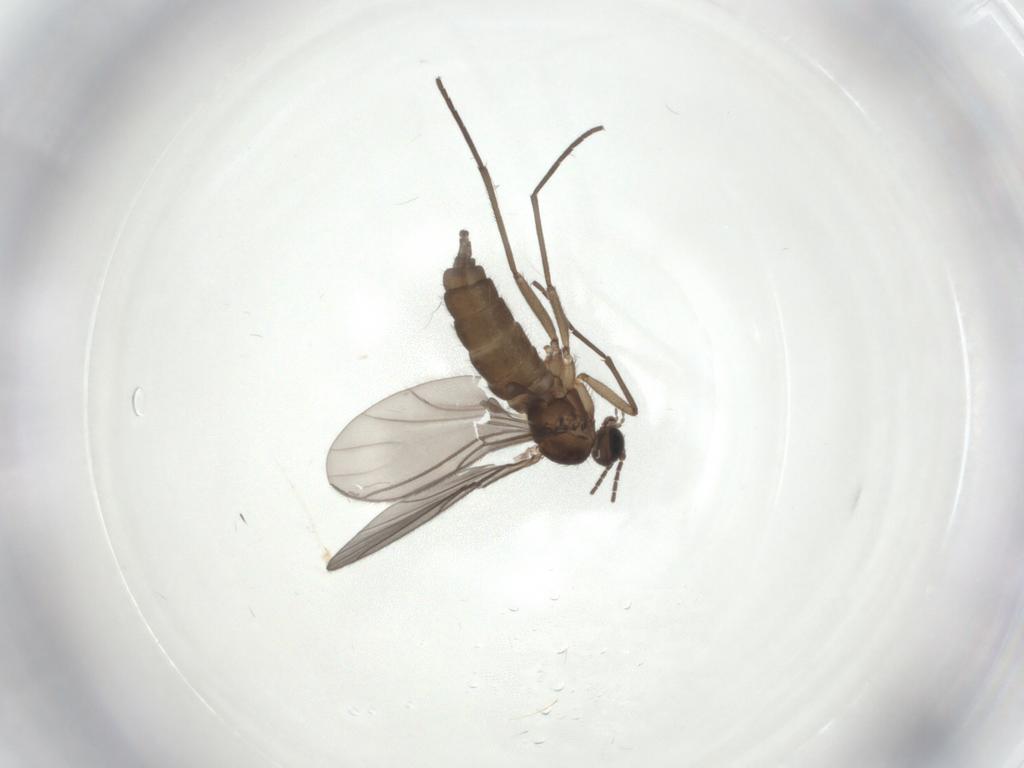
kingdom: Animalia
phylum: Arthropoda
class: Insecta
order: Diptera
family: Sciaridae
